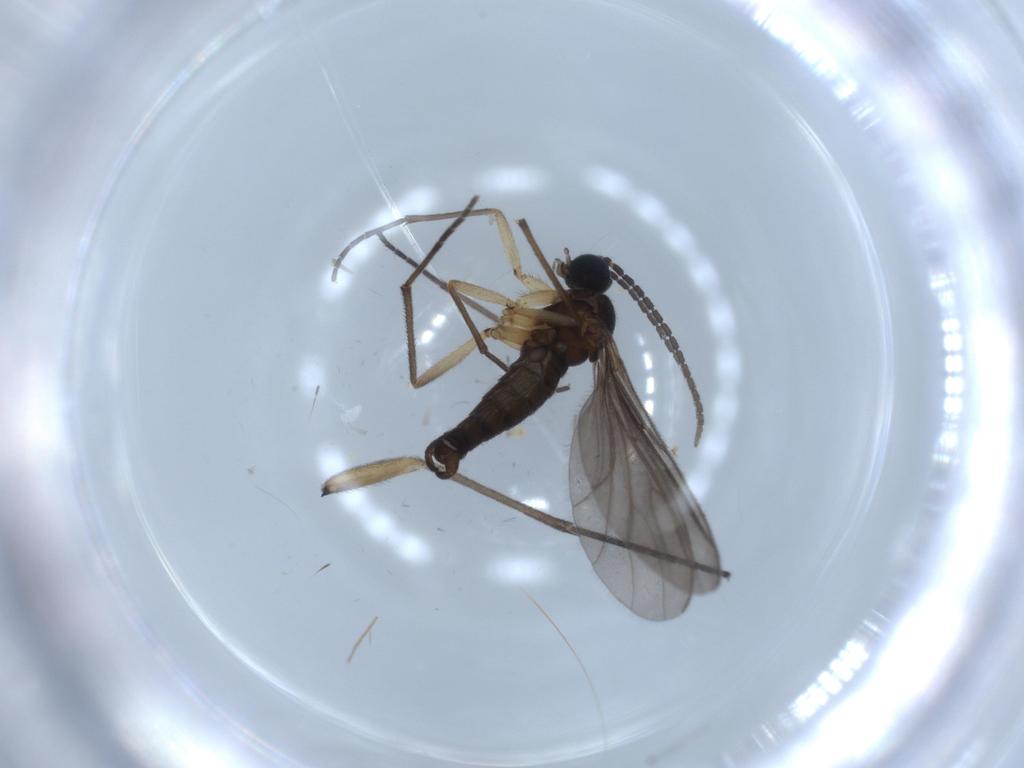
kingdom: Animalia
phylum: Arthropoda
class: Insecta
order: Diptera
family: Sciaridae
